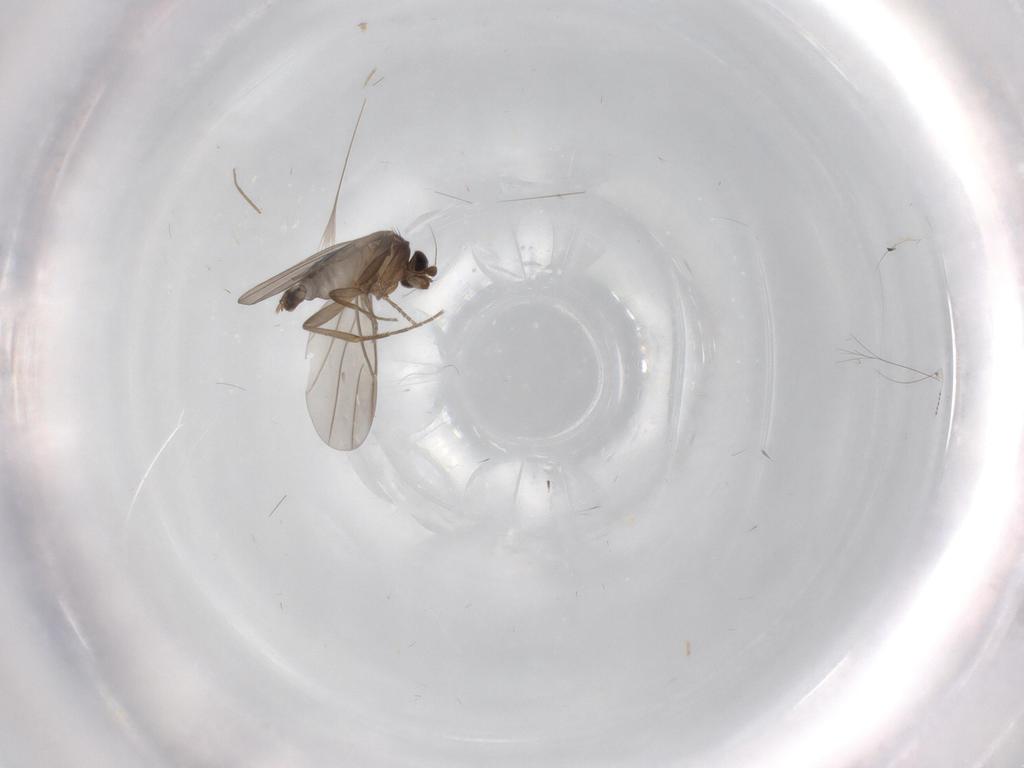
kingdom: Animalia
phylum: Arthropoda
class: Insecta
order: Diptera
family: Phoridae
